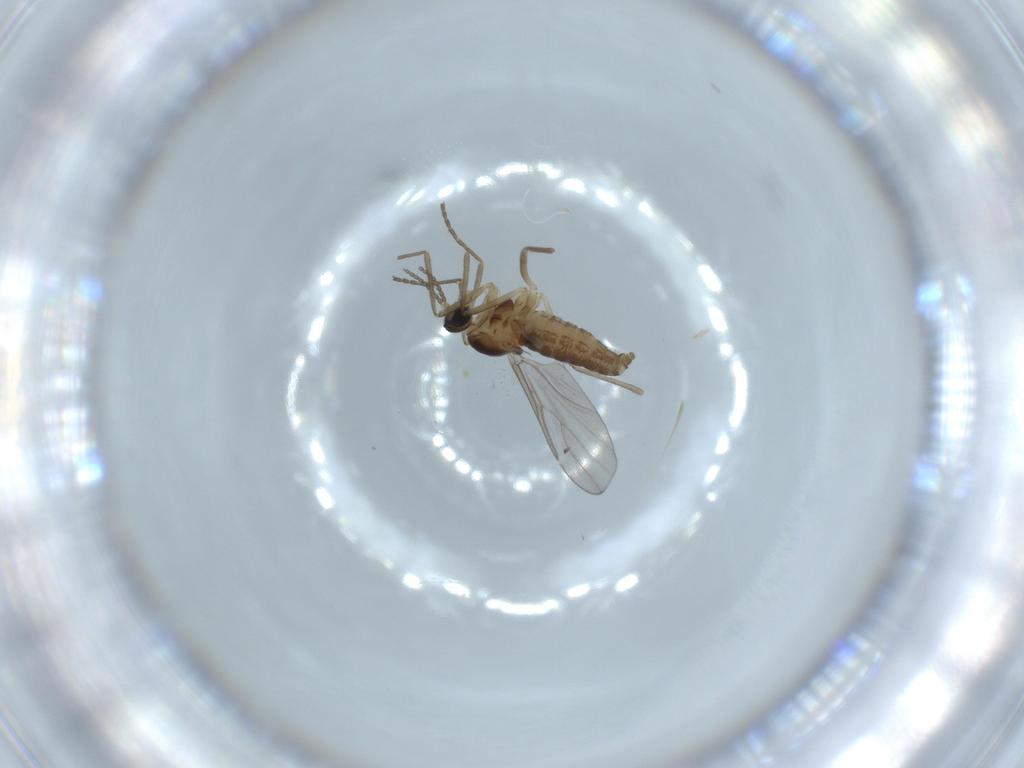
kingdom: Animalia
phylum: Arthropoda
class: Insecta
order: Diptera
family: Cecidomyiidae
